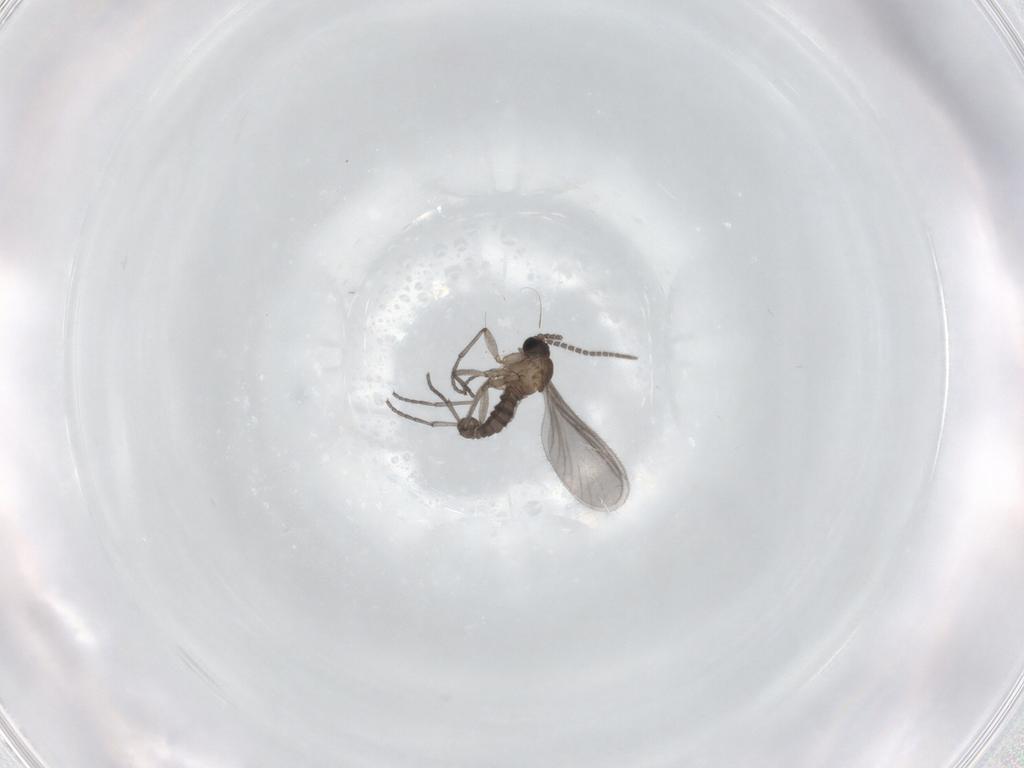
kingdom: Animalia
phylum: Arthropoda
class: Insecta
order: Diptera
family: Sciaridae
